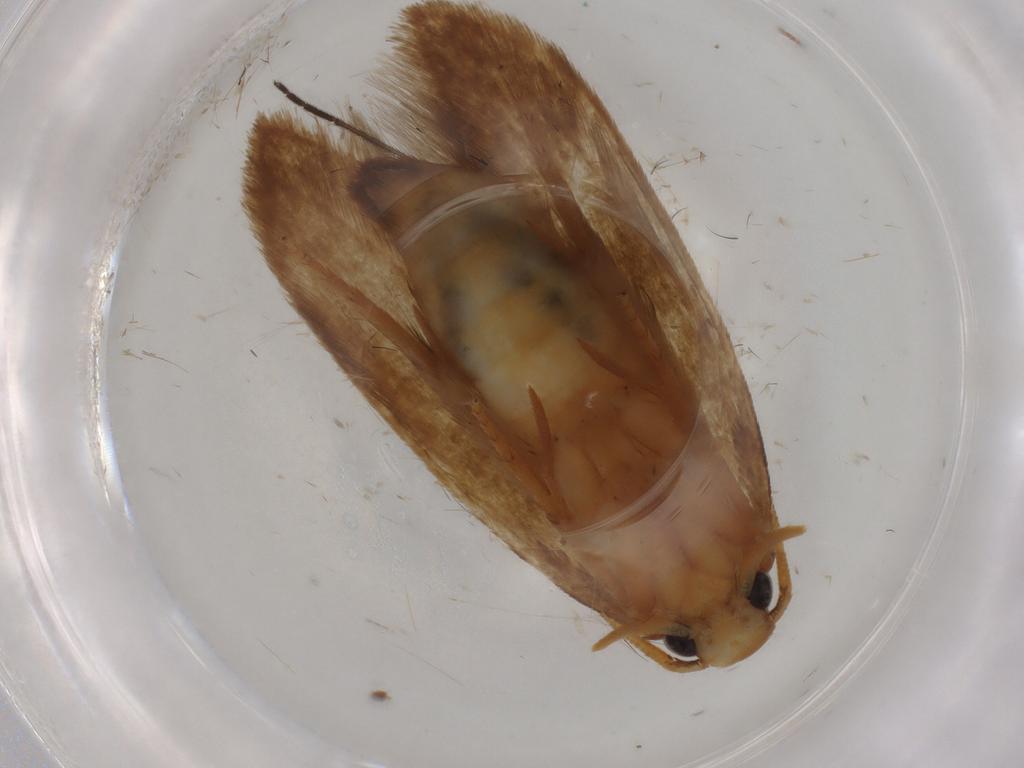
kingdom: Animalia
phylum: Arthropoda
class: Insecta
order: Lepidoptera
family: Tineidae
